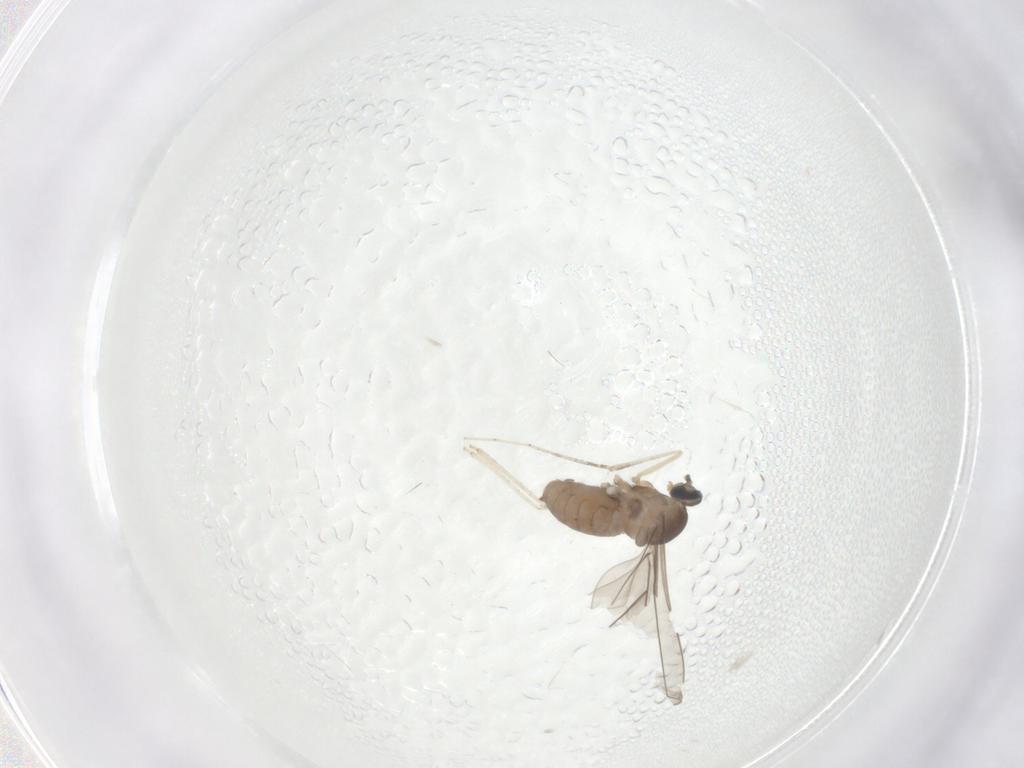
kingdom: Animalia
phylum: Arthropoda
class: Insecta
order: Diptera
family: Cecidomyiidae
